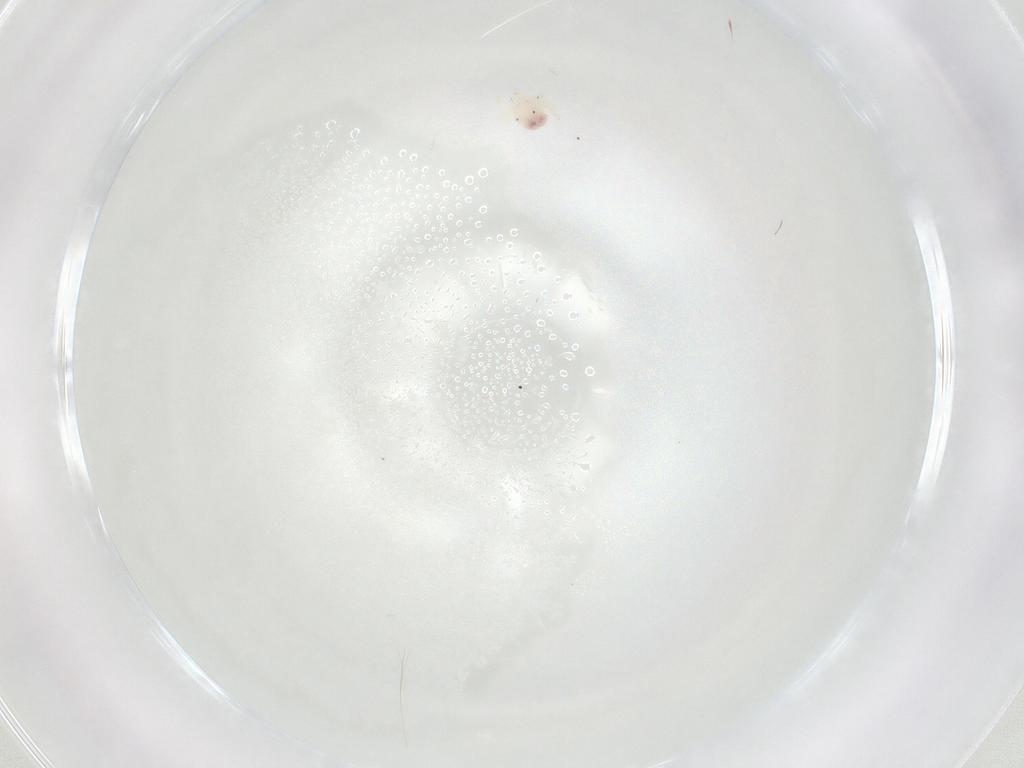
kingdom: Animalia
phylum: Arthropoda
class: Arachnida
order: Trombidiformes
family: Anystidae
